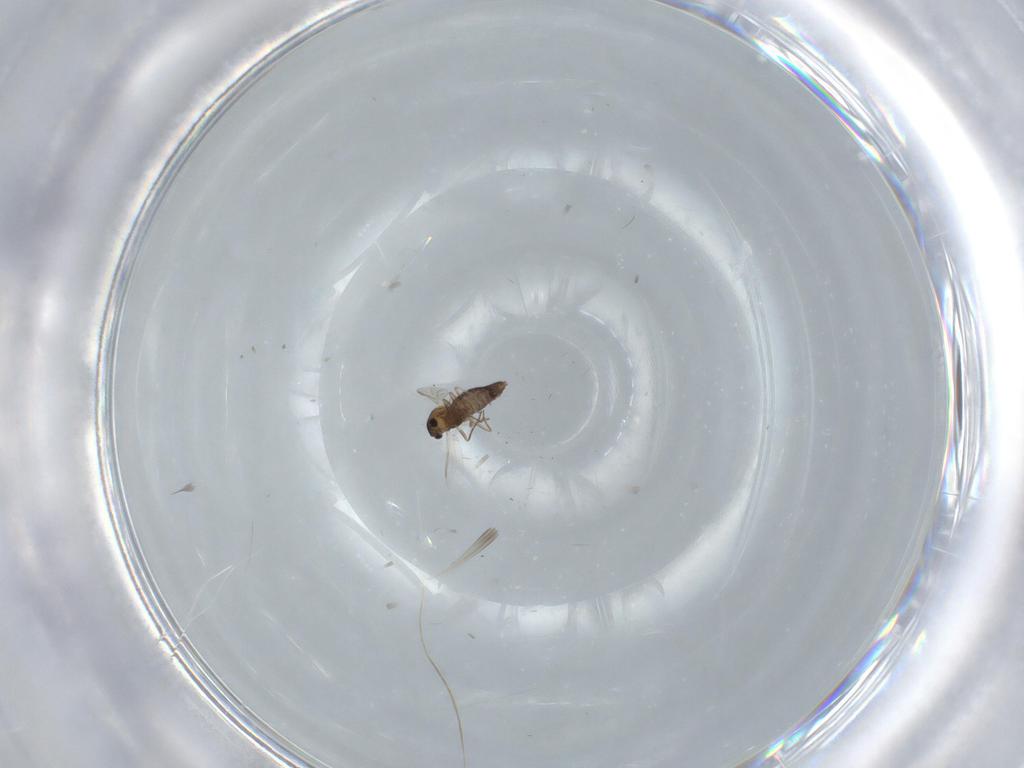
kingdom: Animalia
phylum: Arthropoda
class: Insecta
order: Diptera
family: Chironomidae
